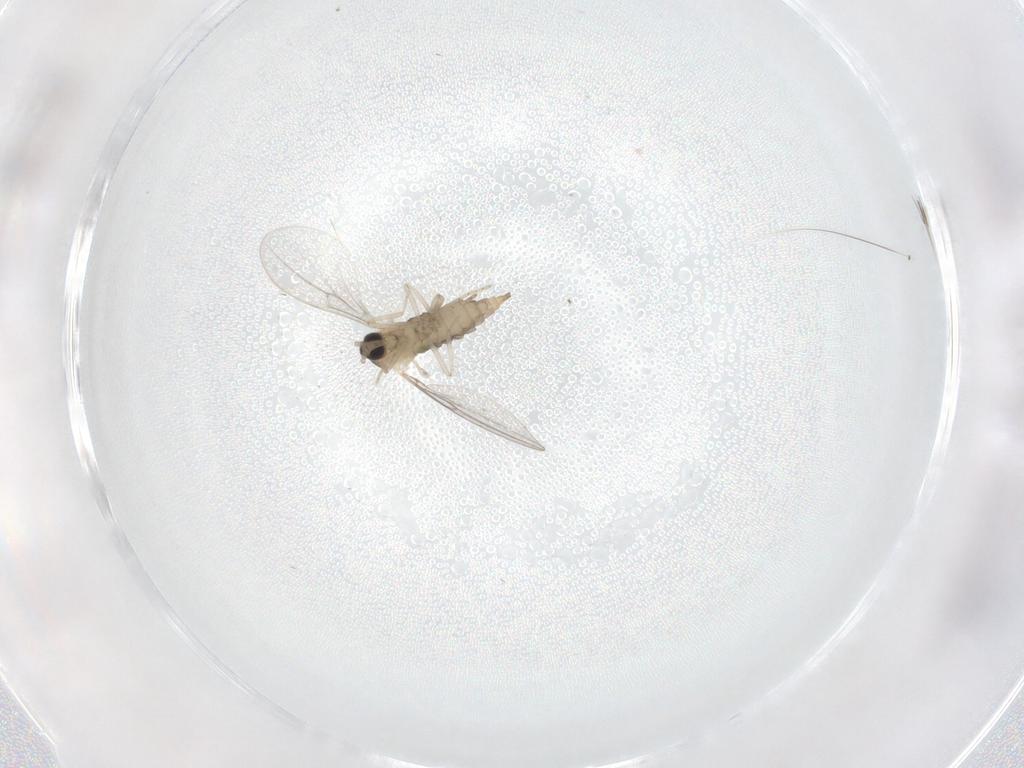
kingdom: Animalia
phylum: Arthropoda
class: Insecta
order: Diptera
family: Cecidomyiidae
